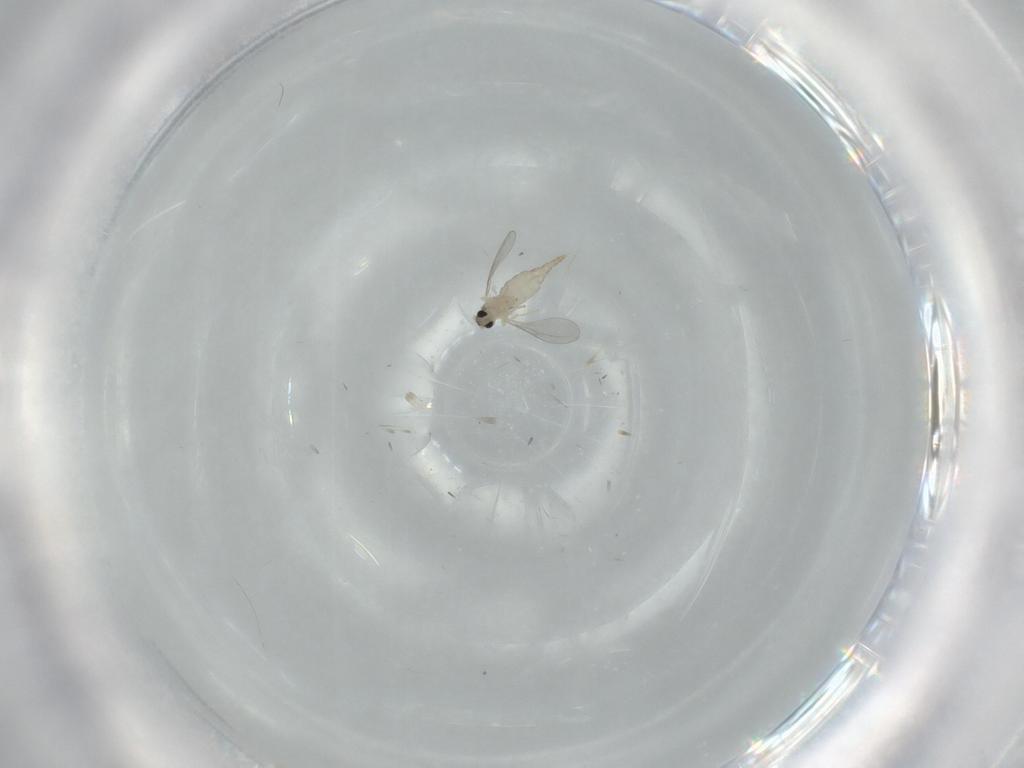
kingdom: Animalia
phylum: Arthropoda
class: Insecta
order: Diptera
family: Cecidomyiidae
